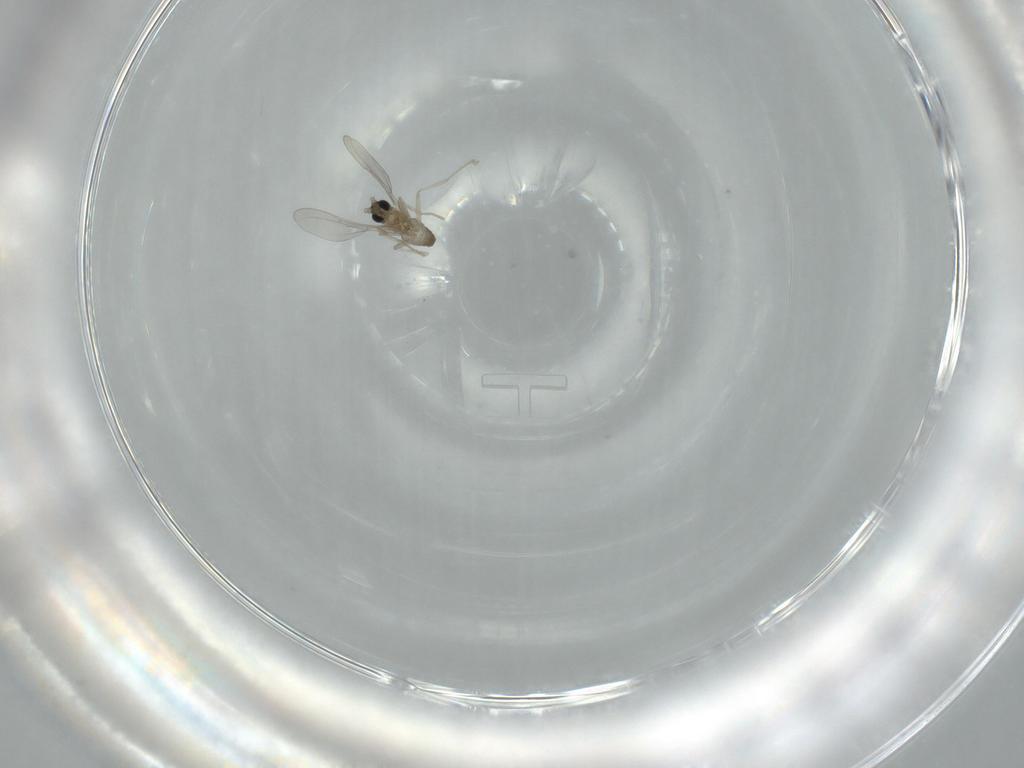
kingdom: Animalia
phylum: Arthropoda
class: Insecta
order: Diptera
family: Cecidomyiidae
